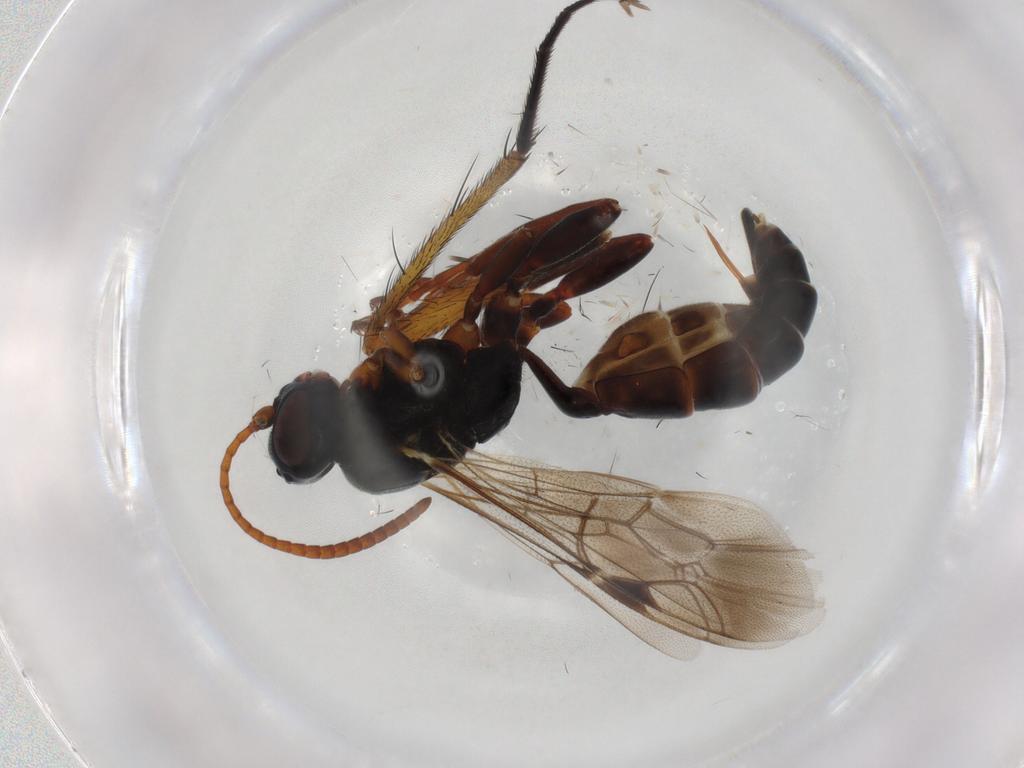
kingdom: Animalia
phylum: Arthropoda
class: Insecta
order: Hymenoptera
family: Ichneumonidae
